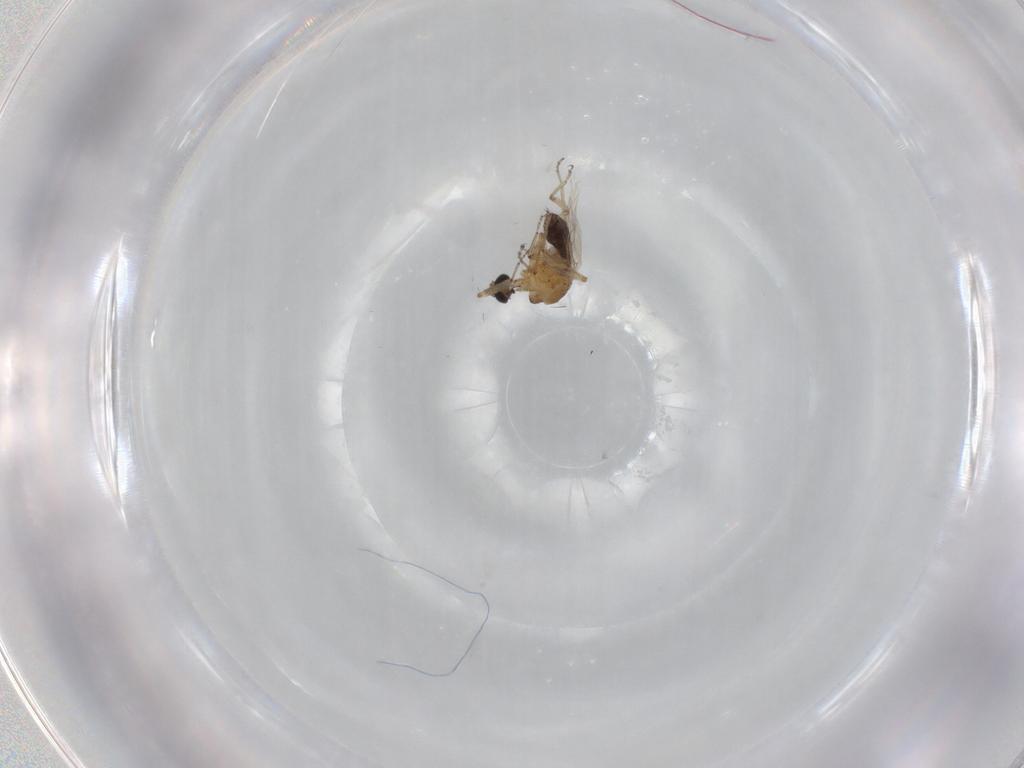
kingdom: Animalia
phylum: Arthropoda
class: Insecta
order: Diptera
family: Ceratopogonidae
